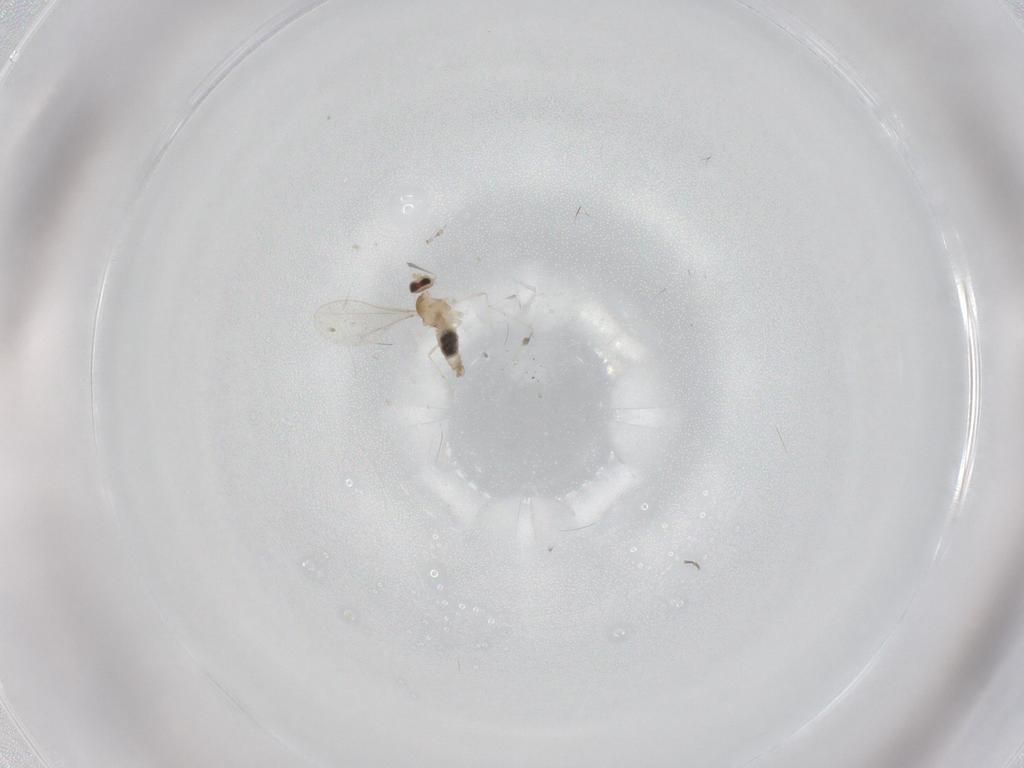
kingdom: Animalia
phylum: Arthropoda
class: Insecta
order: Diptera
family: Cecidomyiidae
